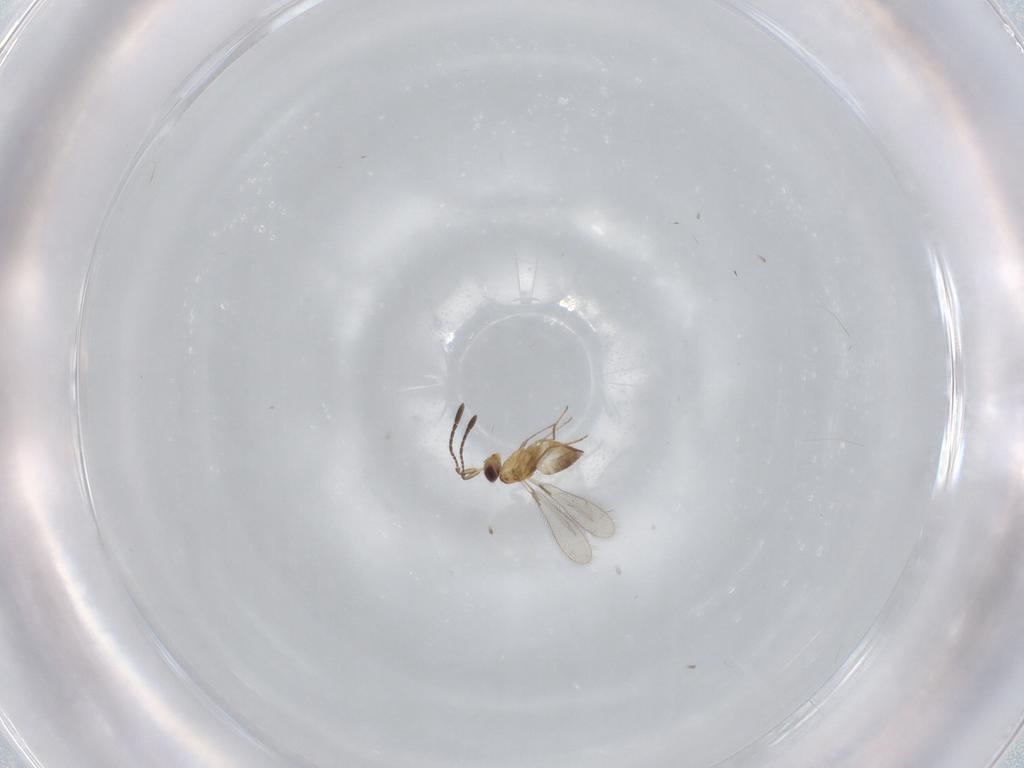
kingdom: Animalia
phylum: Arthropoda
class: Insecta
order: Hymenoptera
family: Mymaridae
